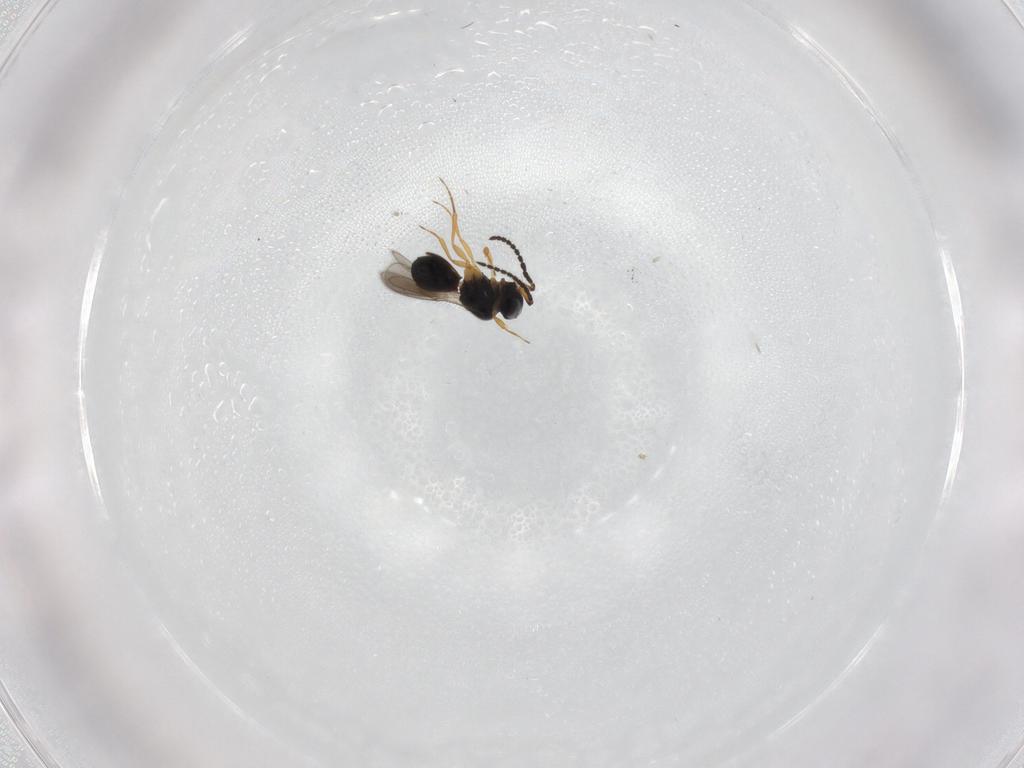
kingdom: Animalia
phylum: Arthropoda
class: Insecta
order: Hymenoptera
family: Scelionidae
